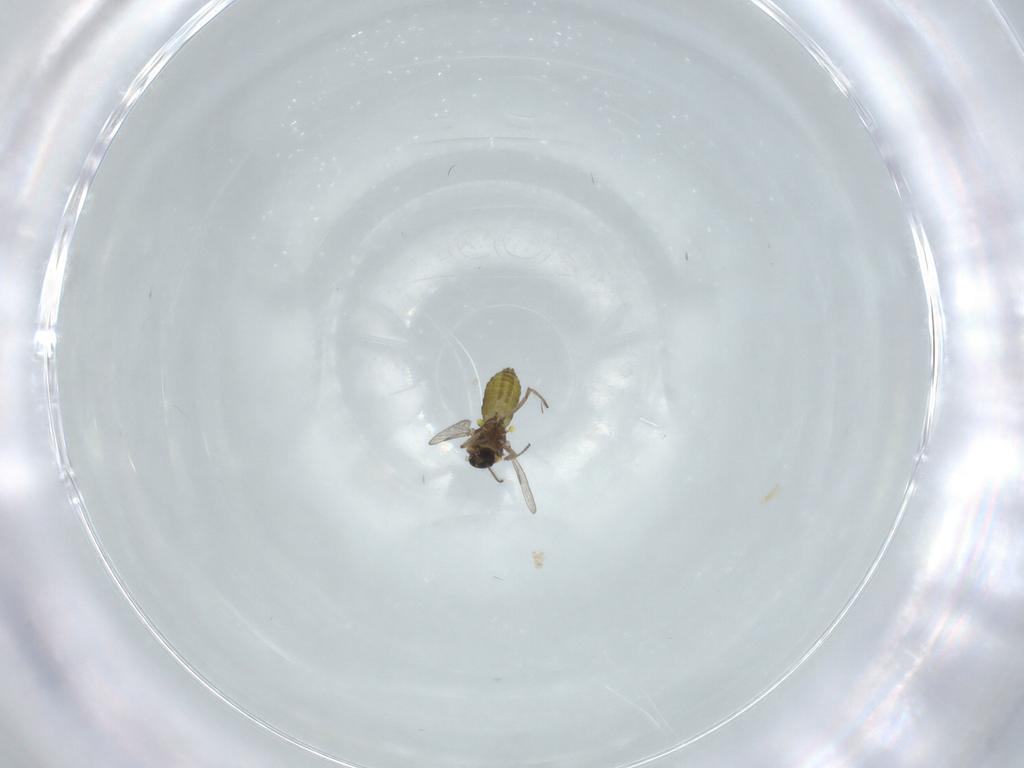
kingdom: Animalia
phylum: Arthropoda
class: Insecta
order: Diptera
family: Ceratopogonidae
